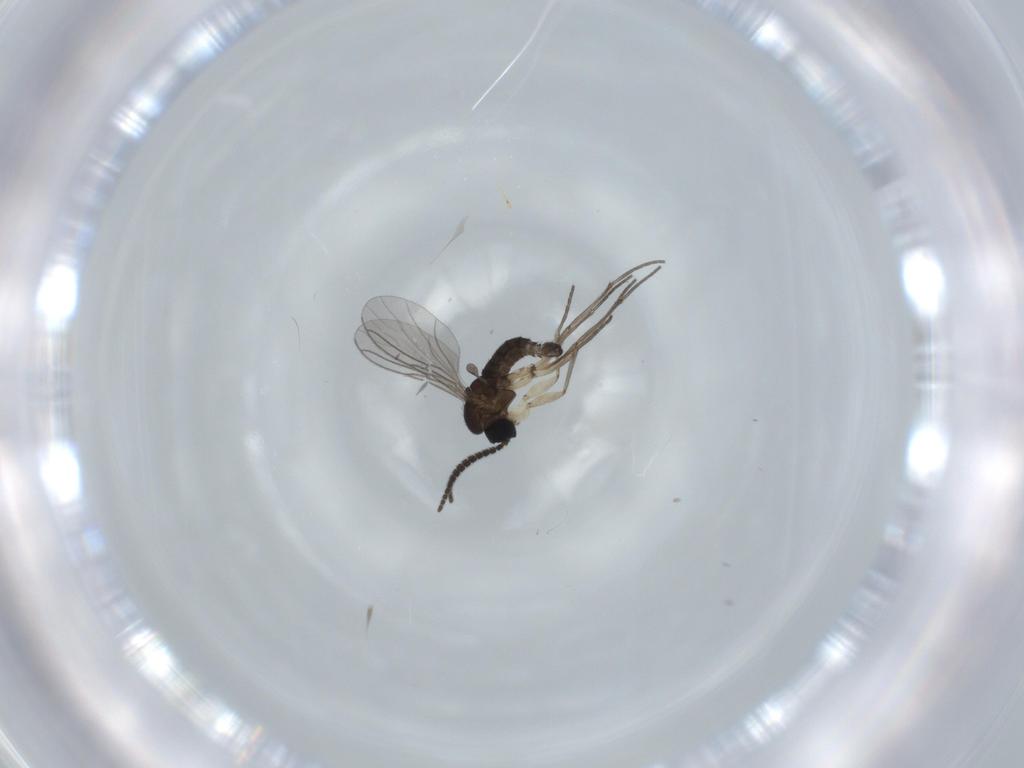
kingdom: Animalia
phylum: Arthropoda
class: Insecta
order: Diptera
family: Sciaridae
